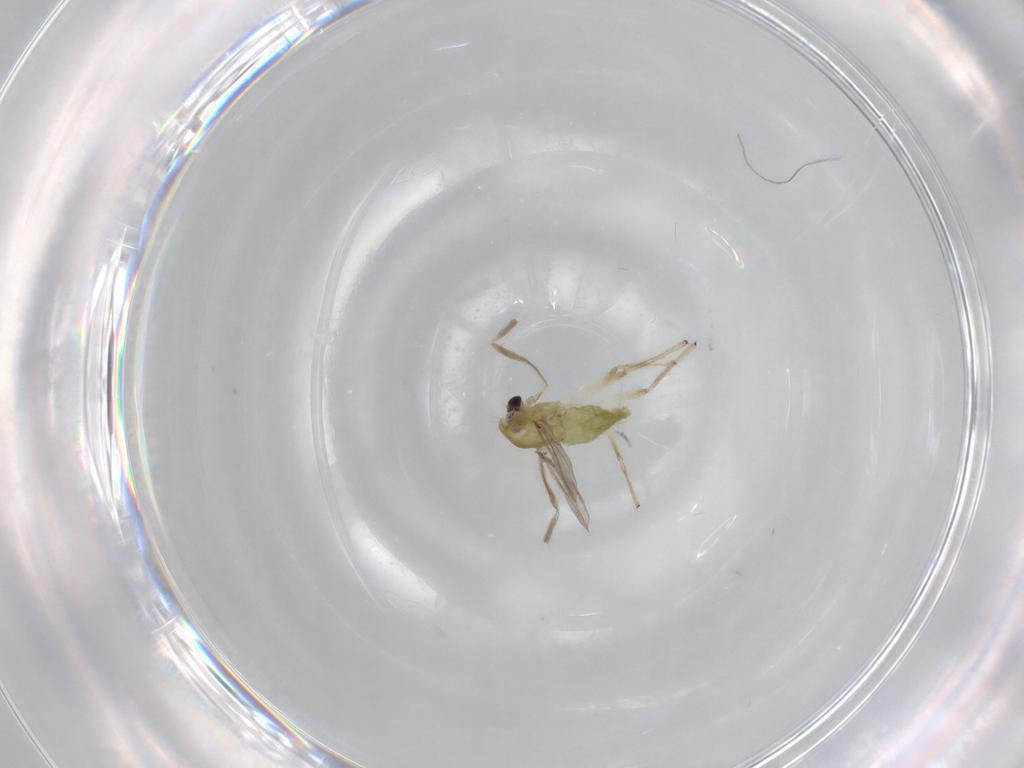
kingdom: Animalia
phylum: Arthropoda
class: Insecta
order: Diptera
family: Chironomidae
